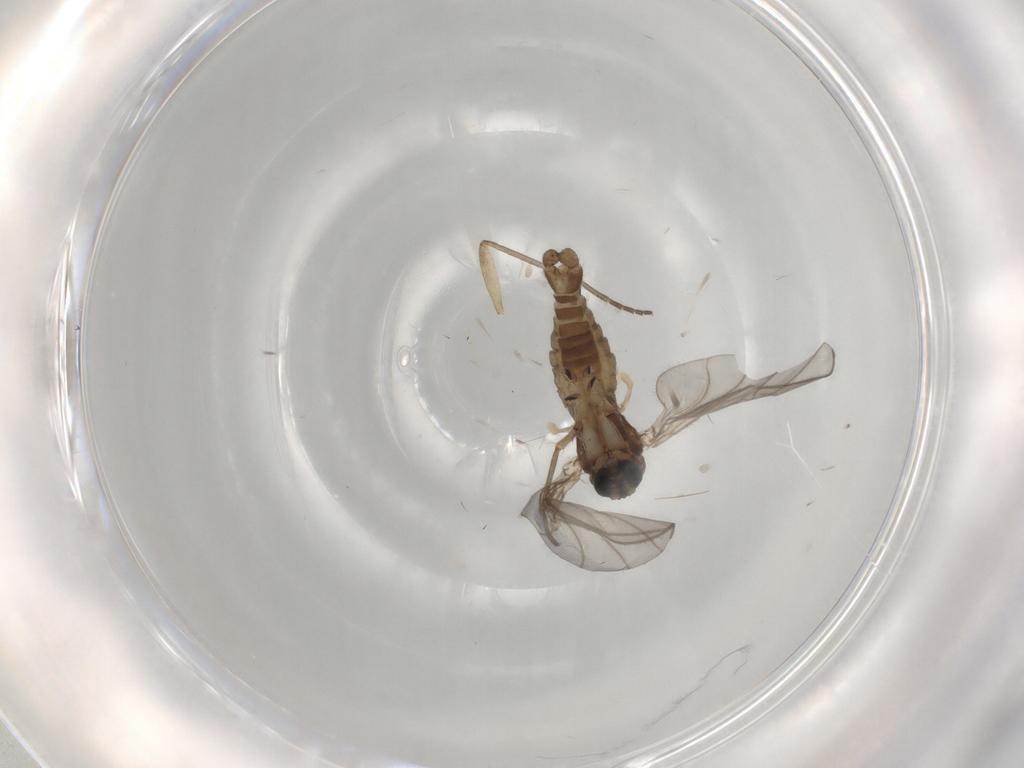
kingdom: Animalia
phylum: Arthropoda
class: Insecta
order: Diptera
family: Sciaridae
